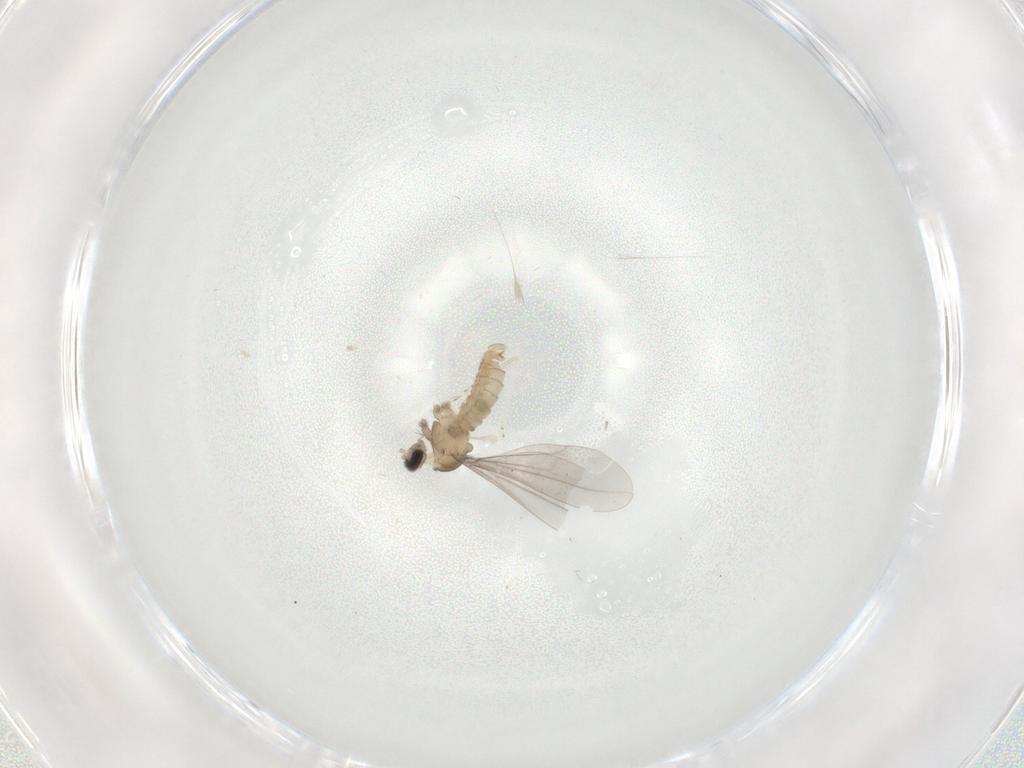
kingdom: Animalia
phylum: Arthropoda
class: Insecta
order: Diptera
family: Cecidomyiidae
